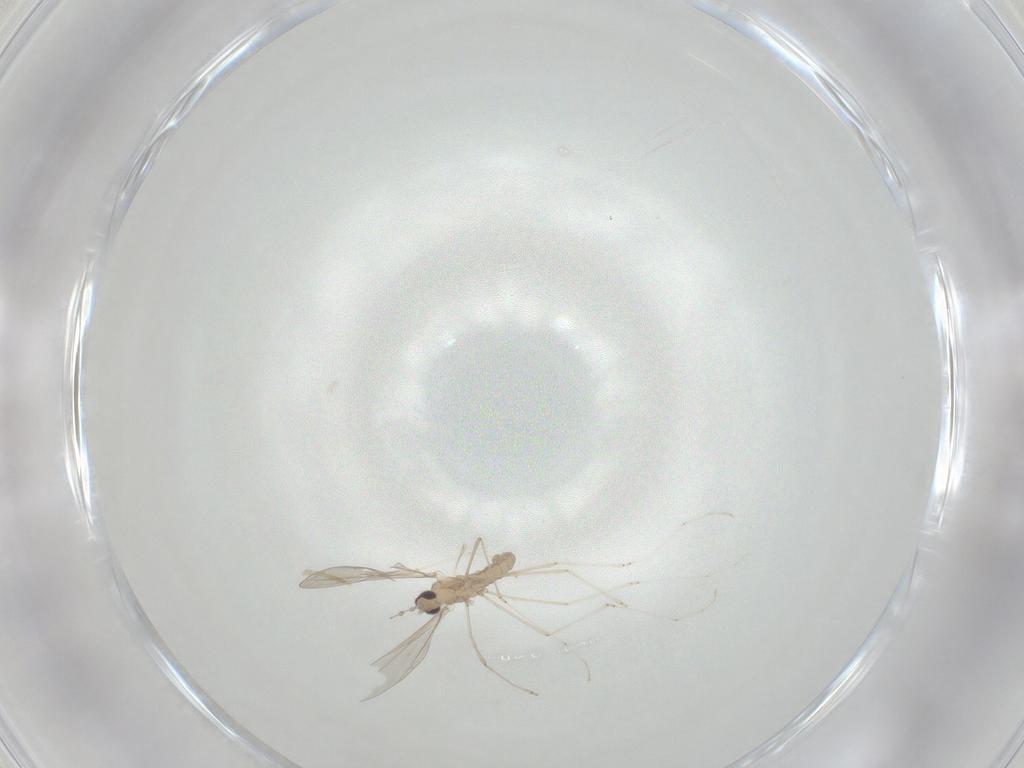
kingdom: Animalia
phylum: Arthropoda
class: Insecta
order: Diptera
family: Cecidomyiidae
